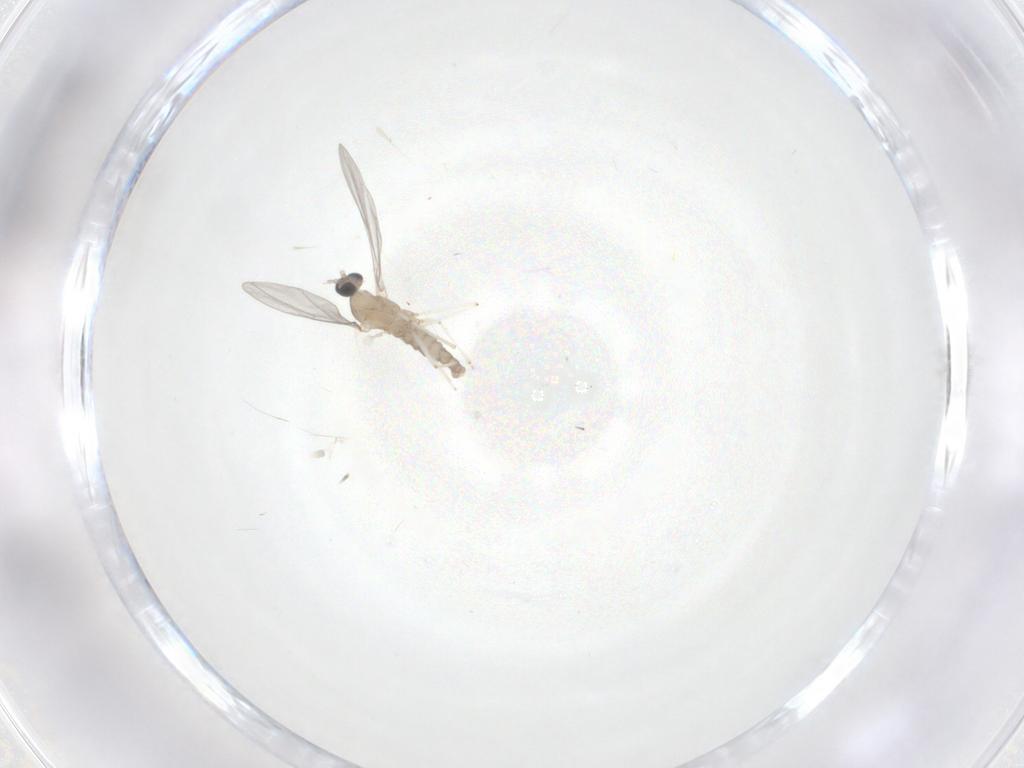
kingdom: Animalia
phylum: Arthropoda
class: Insecta
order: Diptera
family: Cecidomyiidae
